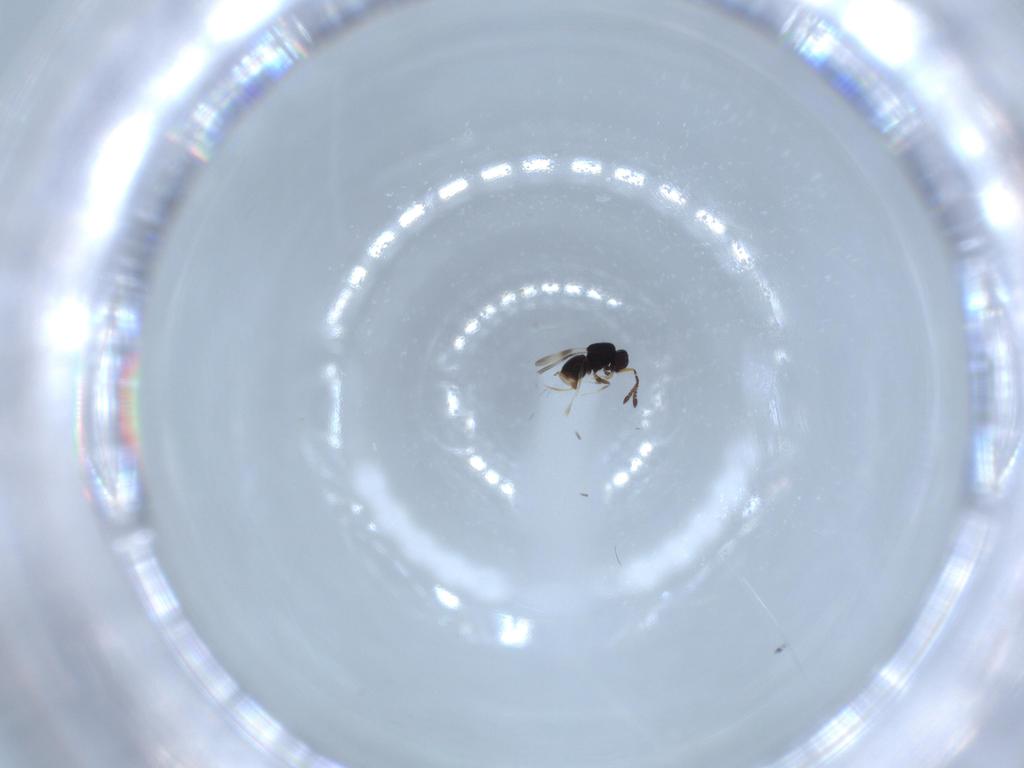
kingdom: Animalia
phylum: Arthropoda
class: Insecta
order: Hymenoptera
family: Ceraphronidae
